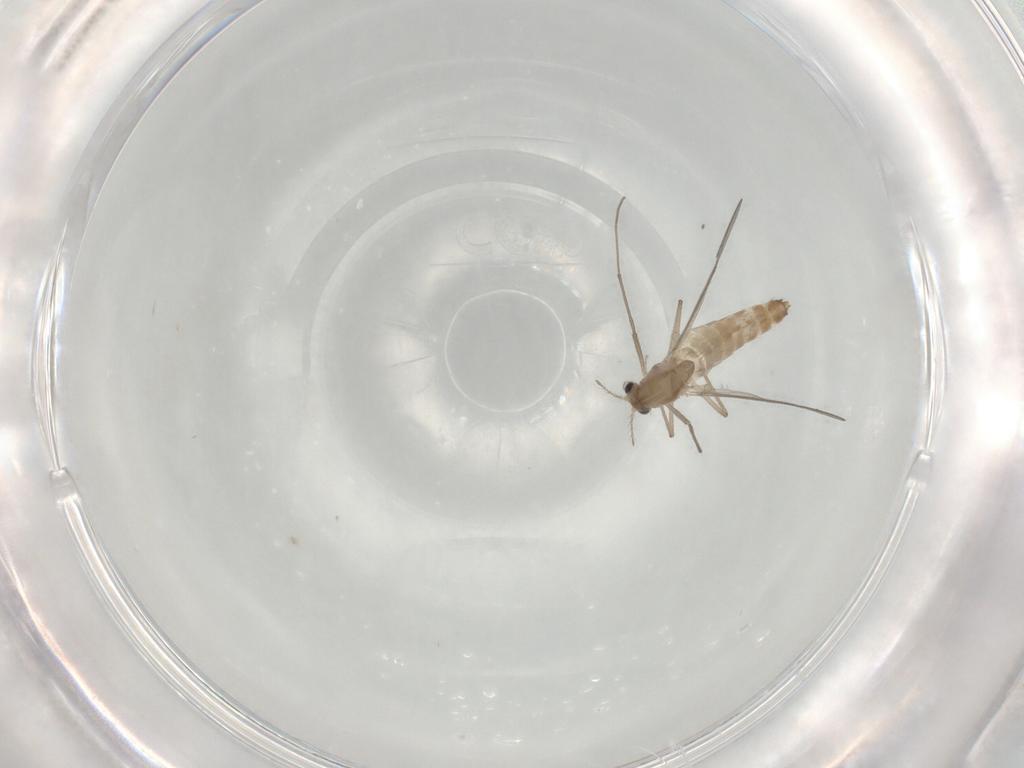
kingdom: Animalia
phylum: Arthropoda
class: Insecta
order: Diptera
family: Chironomidae
